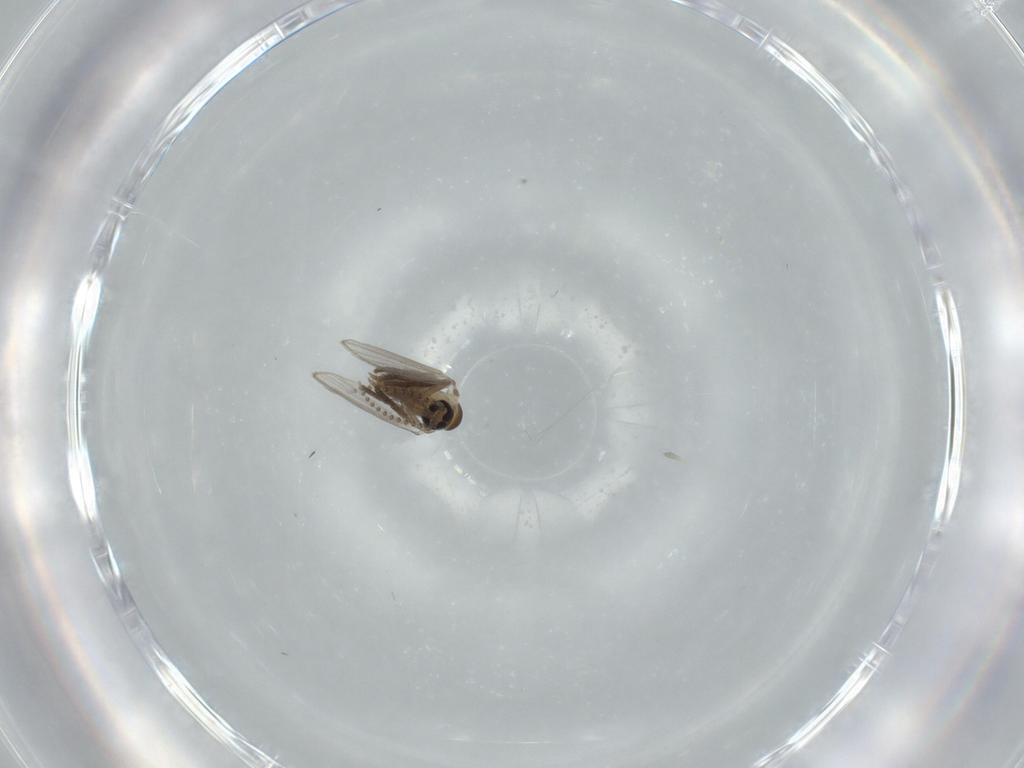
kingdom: Animalia
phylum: Arthropoda
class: Insecta
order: Diptera
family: Psychodidae
